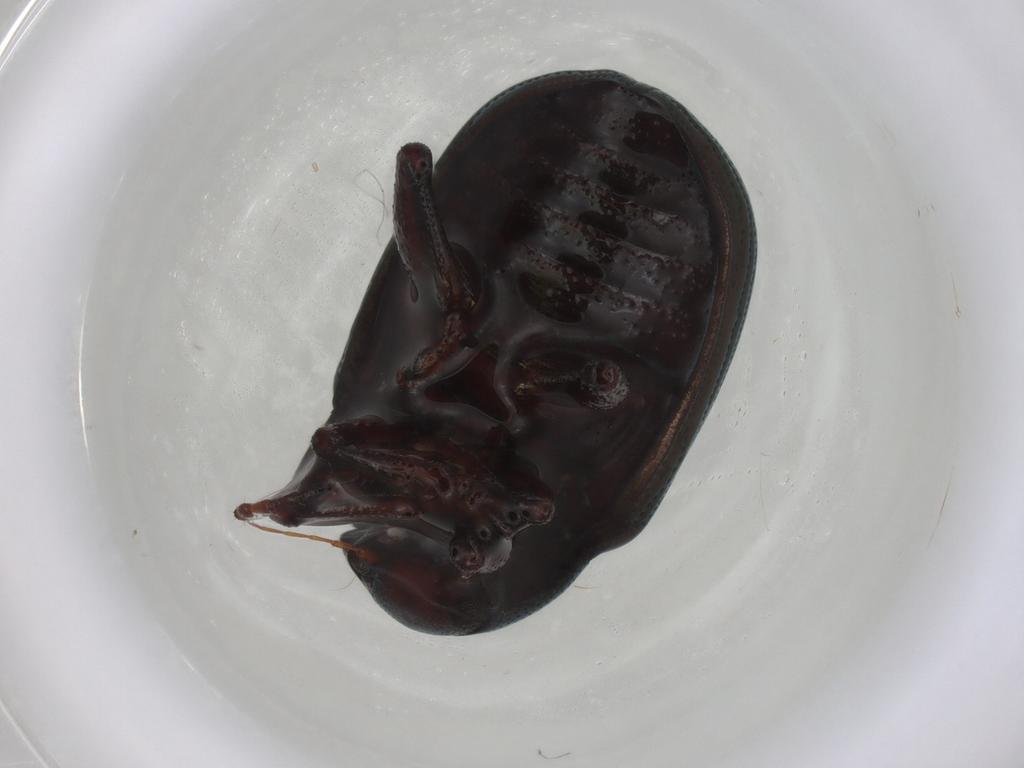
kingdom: Animalia
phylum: Arthropoda
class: Insecta
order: Coleoptera
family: Chrysomelidae
